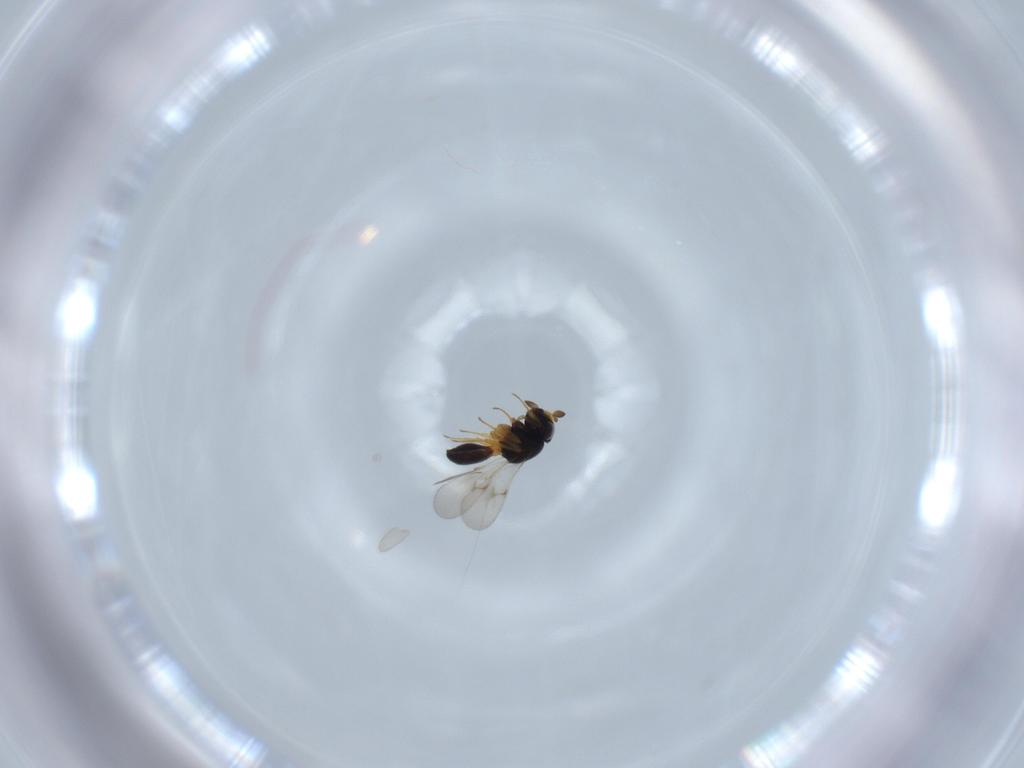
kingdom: Animalia
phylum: Arthropoda
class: Insecta
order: Hymenoptera
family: Scelionidae
